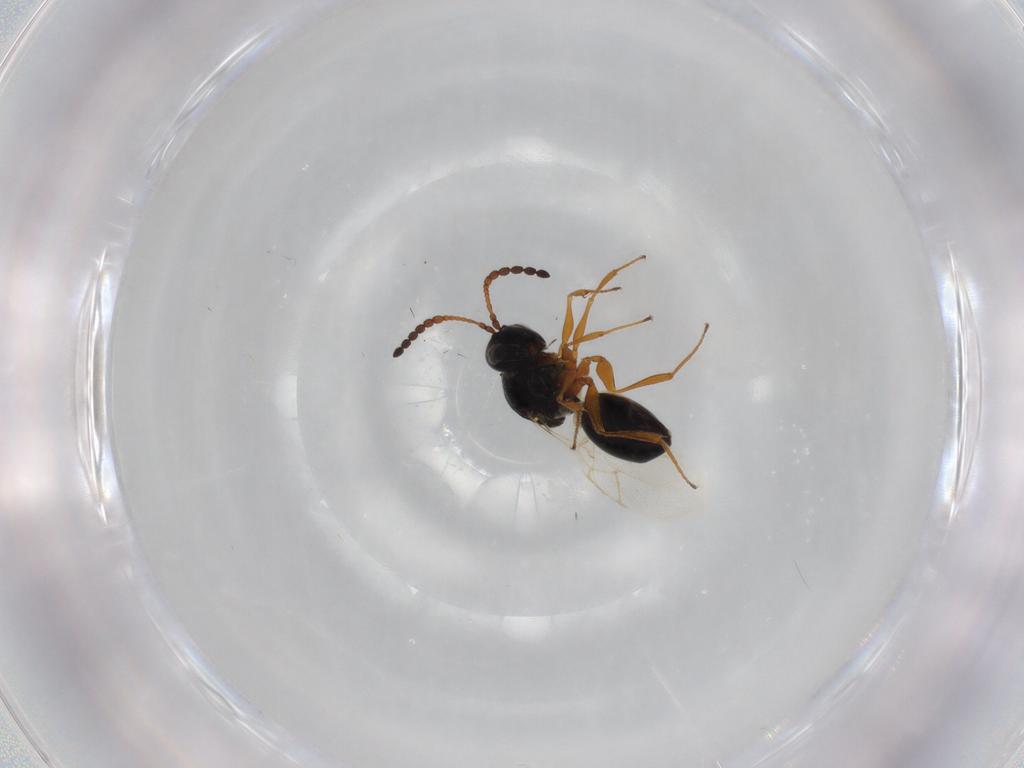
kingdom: Animalia
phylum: Arthropoda
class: Insecta
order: Hymenoptera
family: Figitidae
